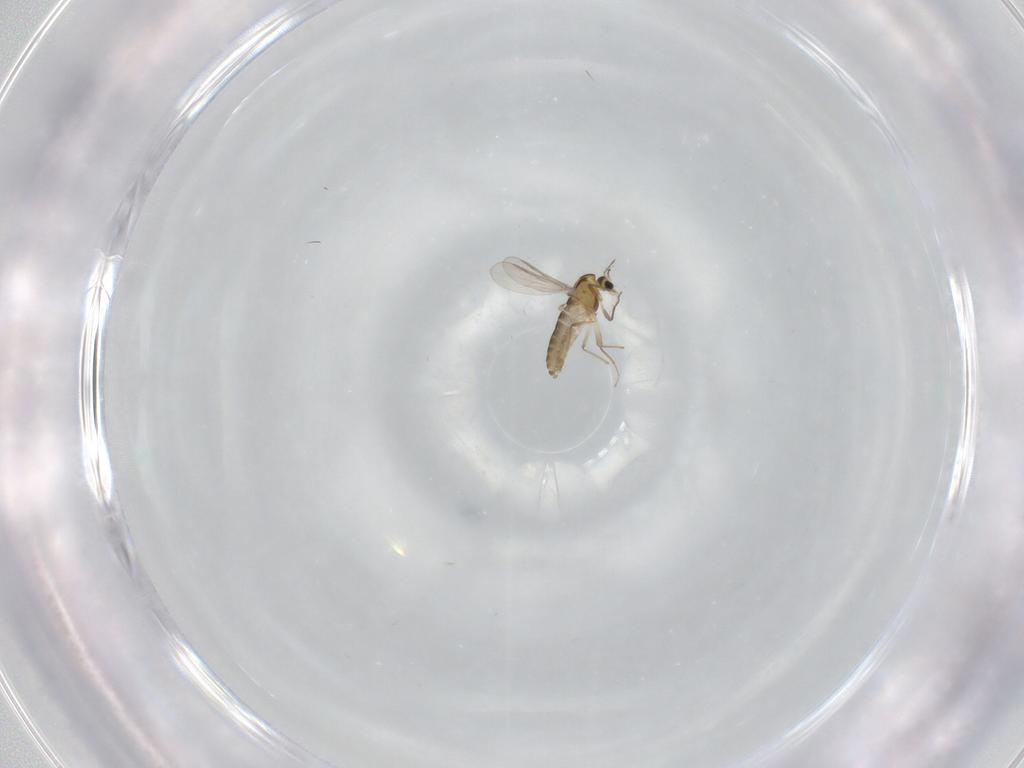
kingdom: Animalia
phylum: Arthropoda
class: Insecta
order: Diptera
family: Chironomidae
